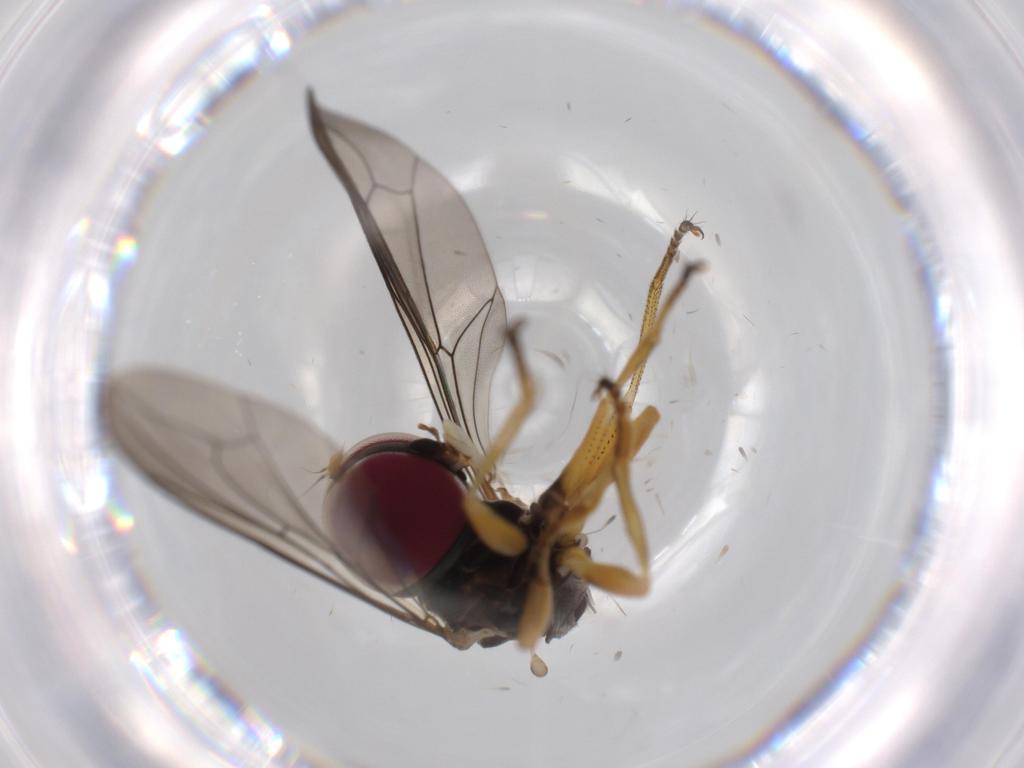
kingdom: Animalia
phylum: Arthropoda
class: Insecta
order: Diptera
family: Ceratopogonidae
